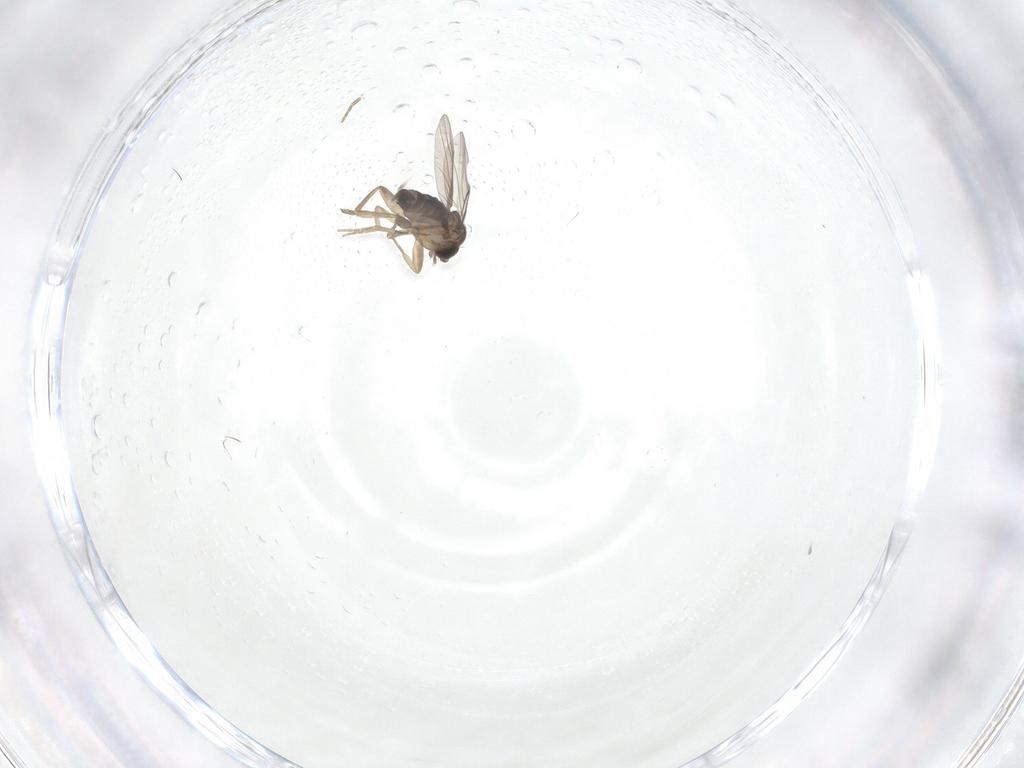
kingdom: Animalia
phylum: Arthropoda
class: Insecta
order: Diptera
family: Phoridae
